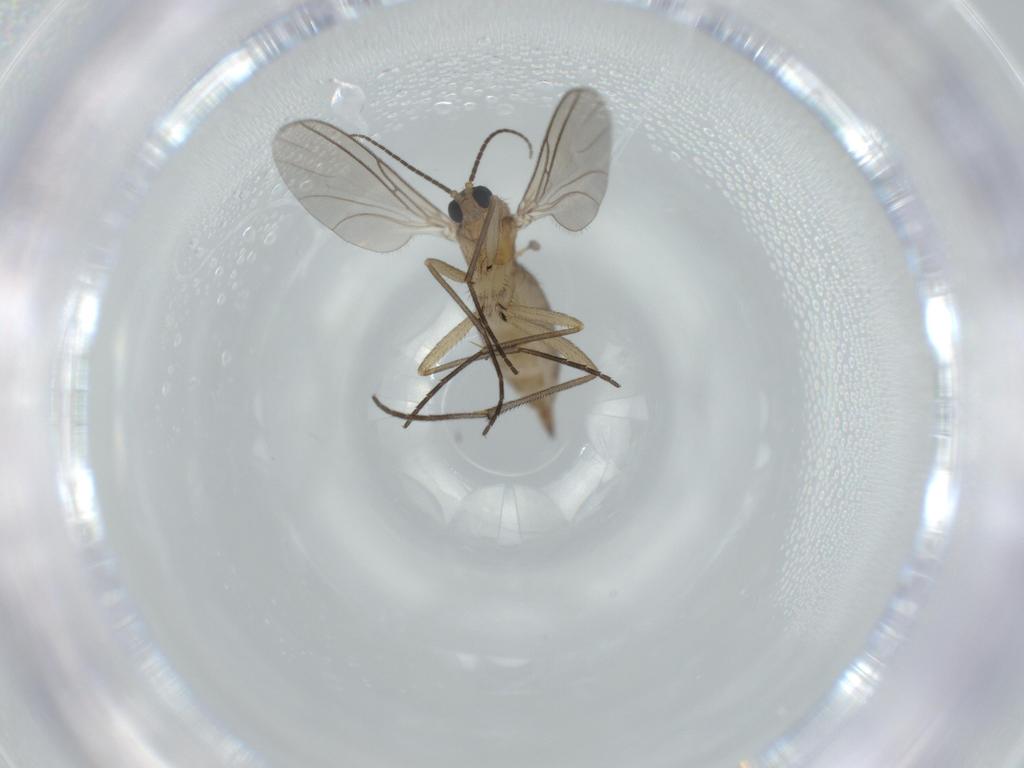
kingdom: Animalia
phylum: Arthropoda
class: Insecta
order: Diptera
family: Sciaridae
